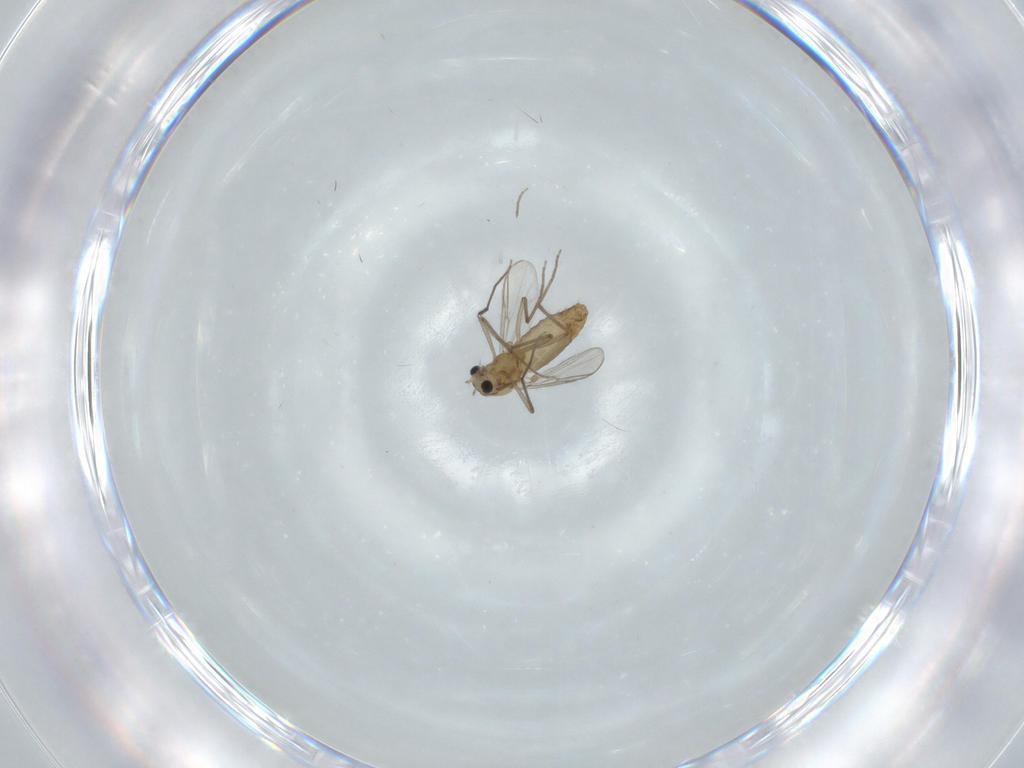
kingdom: Animalia
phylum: Arthropoda
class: Insecta
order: Diptera
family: Chironomidae
